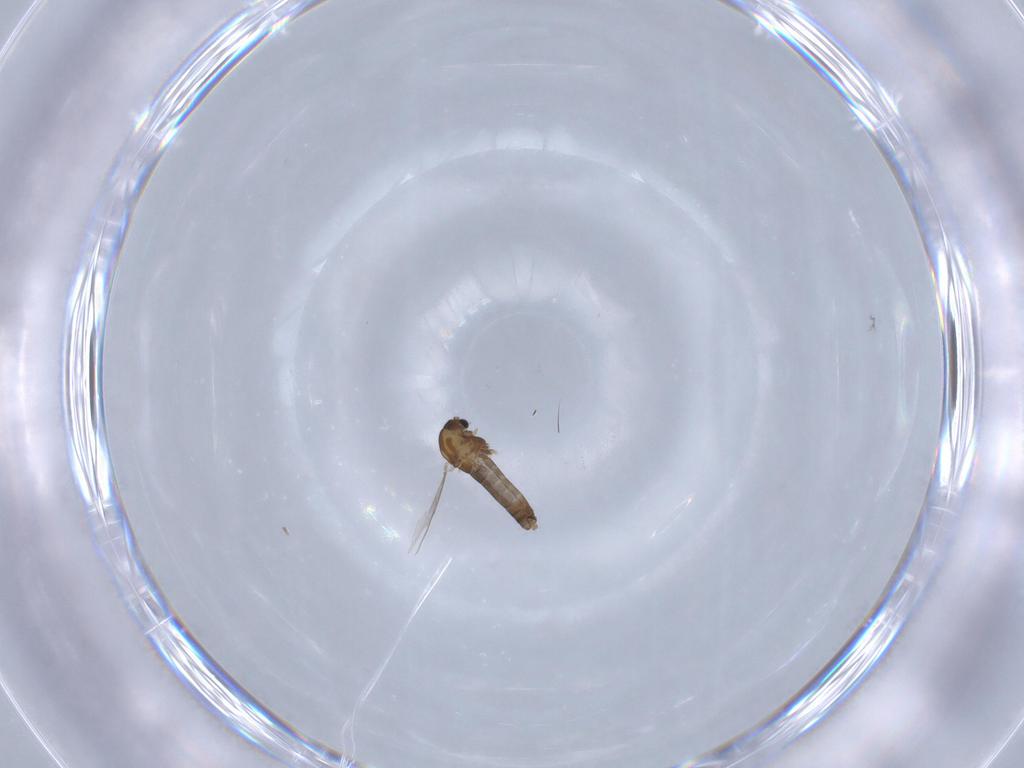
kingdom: Animalia
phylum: Arthropoda
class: Insecta
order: Diptera
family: Chironomidae
